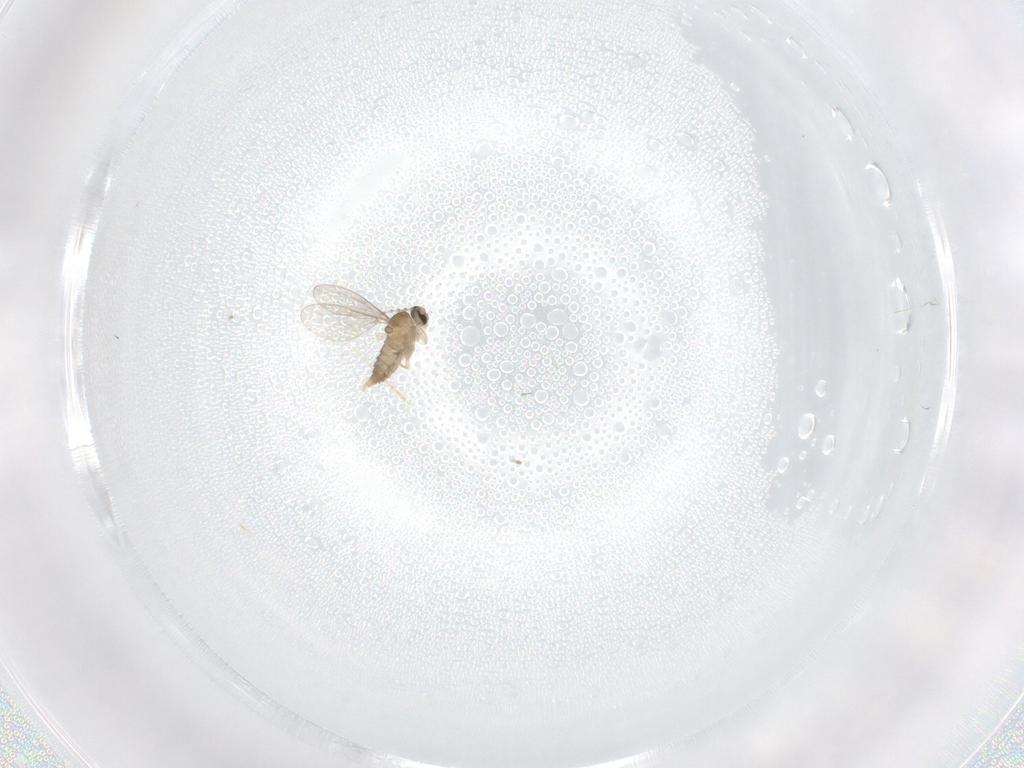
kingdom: Animalia
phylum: Arthropoda
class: Insecta
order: Diptera
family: Cecidomyiidae
